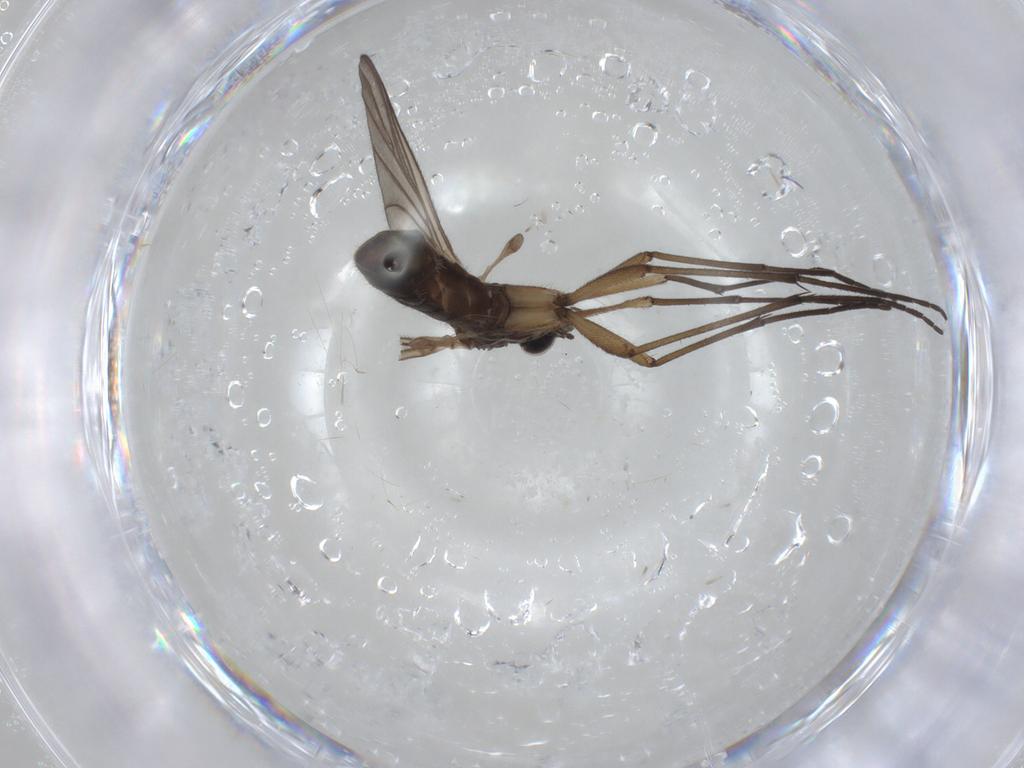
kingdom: Animalia
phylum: Arthropoda
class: Insecta
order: Diptera
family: Chironomidae
